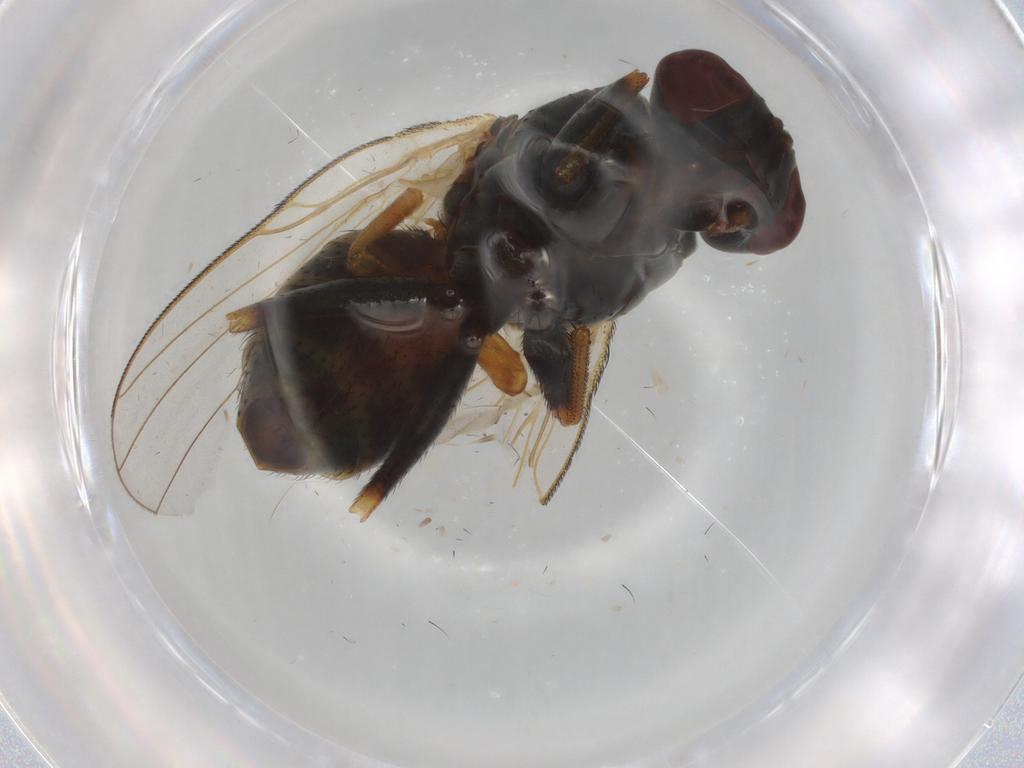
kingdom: Animalia
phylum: Arthropoda
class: Insecta
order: Diptera
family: Muscidae
